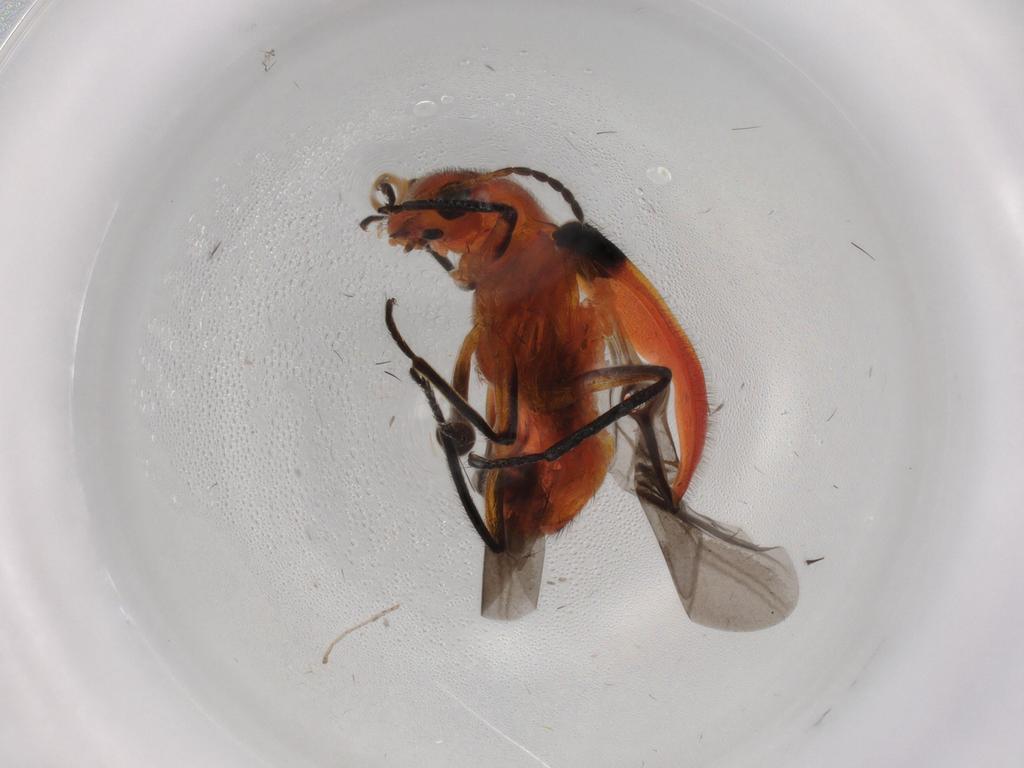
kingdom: Animalia
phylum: Arthropoda
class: Insecta
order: Coleoptera
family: Melyridae
